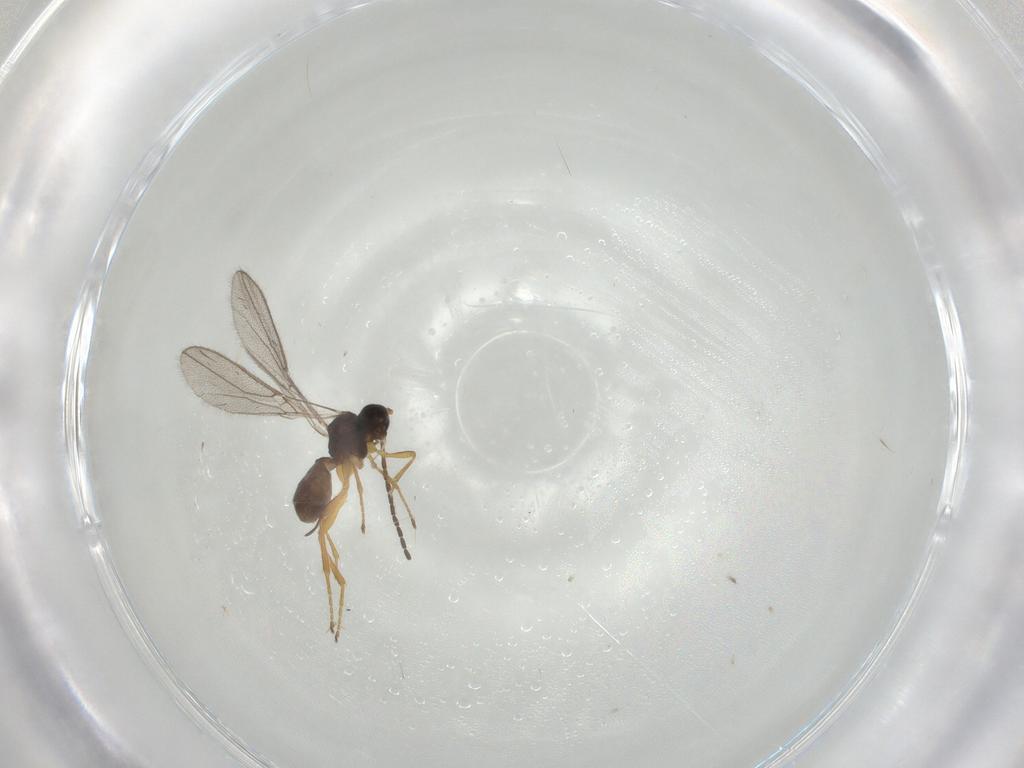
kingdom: Animalia
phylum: Arthropoda
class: Insecta
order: Hymenoptera
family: Braconidae
